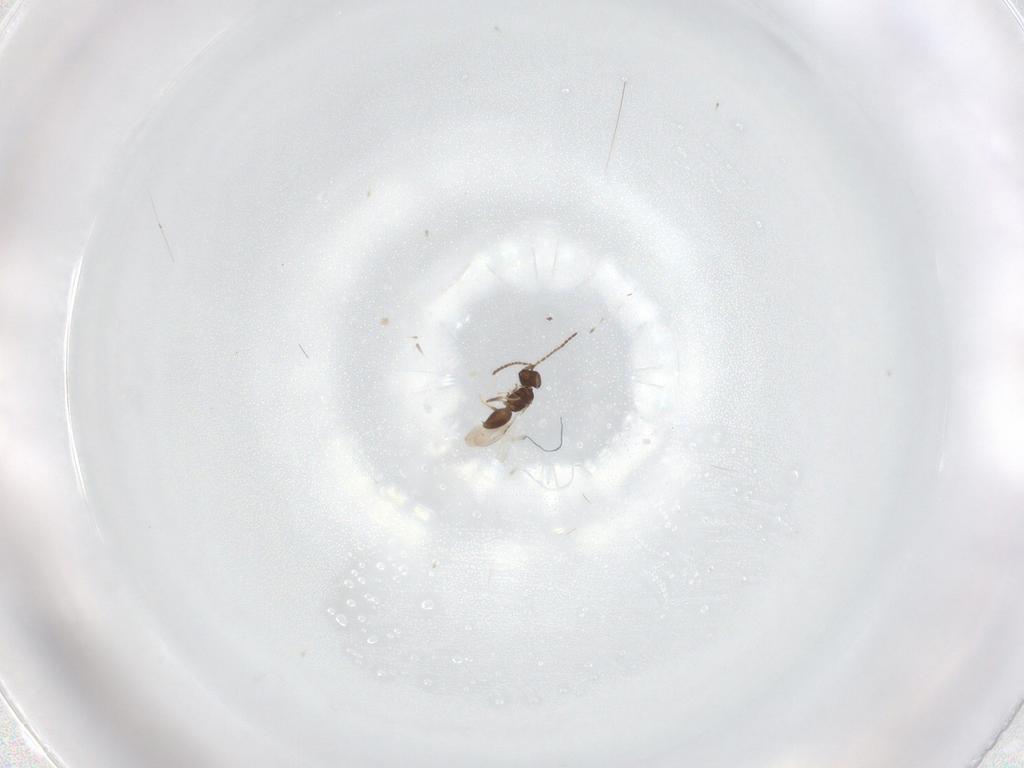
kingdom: Animalia
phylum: Arthropoda
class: Insecta
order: Hymenoptera
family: Ceraphronidae
